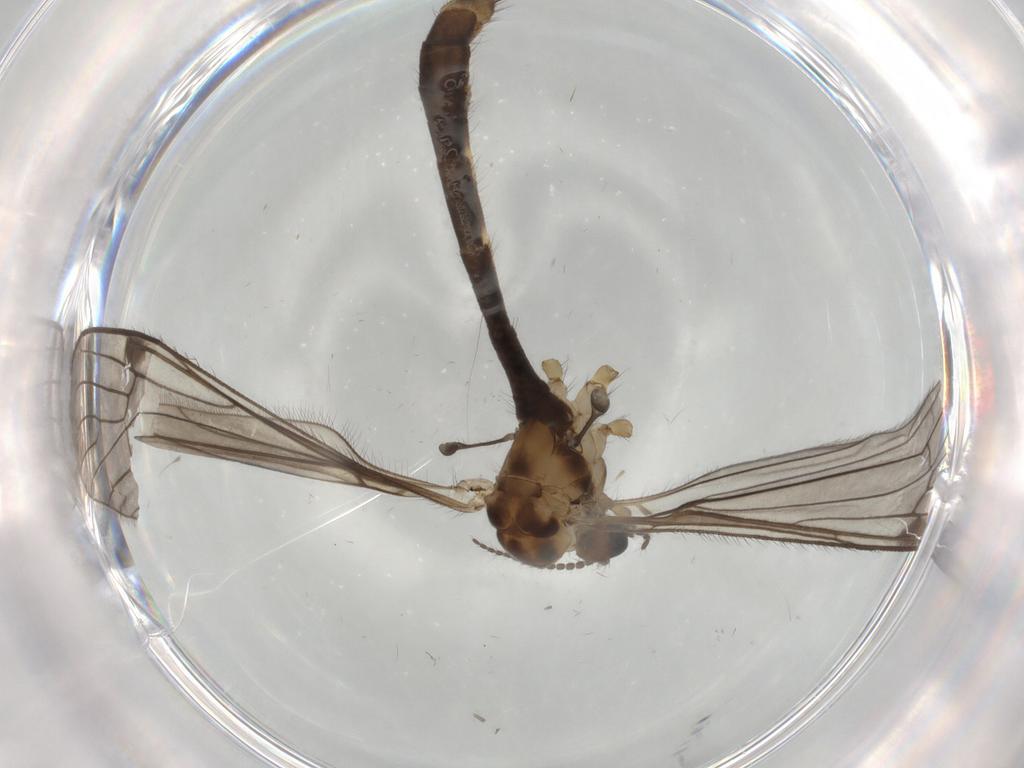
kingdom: Animalia
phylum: Arthropoda
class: Insecta
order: Diptera
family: Limoniidae
